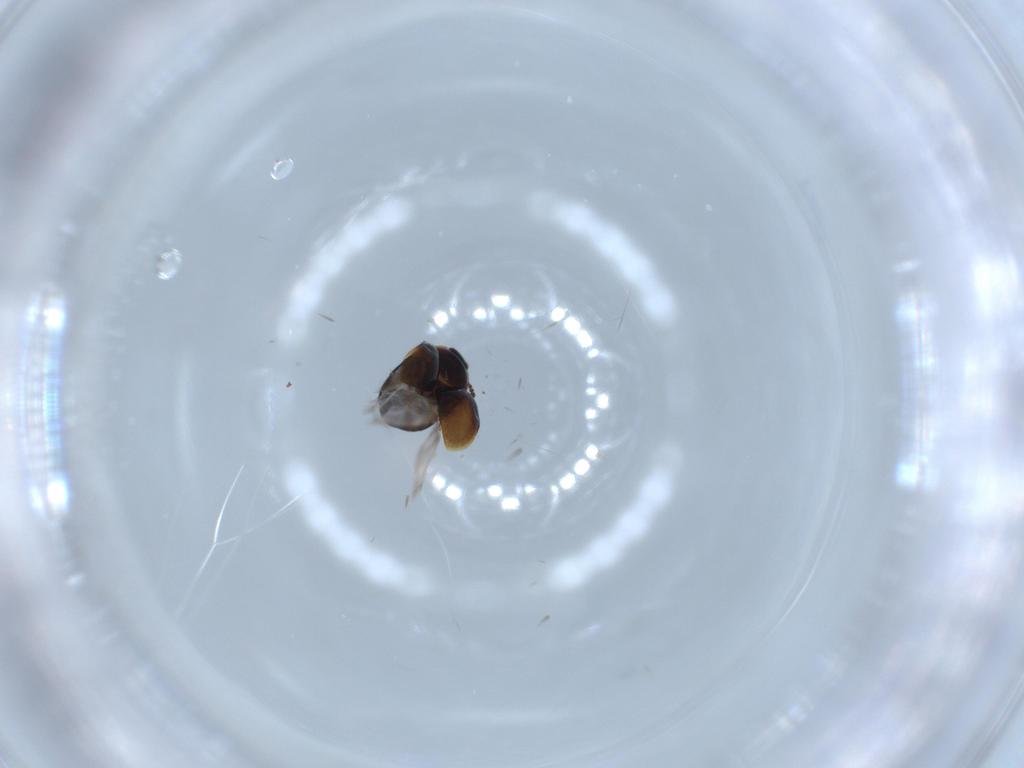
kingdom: Animalia
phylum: Arthropoda
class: Insecta
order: Coleoptera
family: Corylophidae
